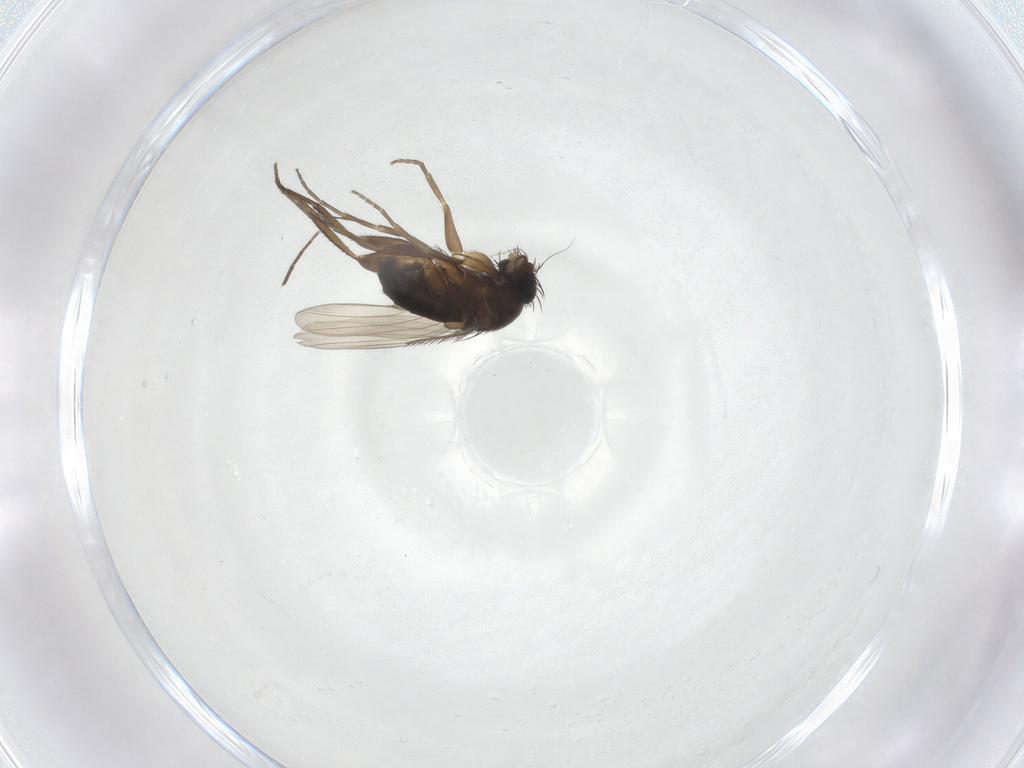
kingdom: Animalia
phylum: Arthropoda
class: Insecta
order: Diptera
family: Phoridae
